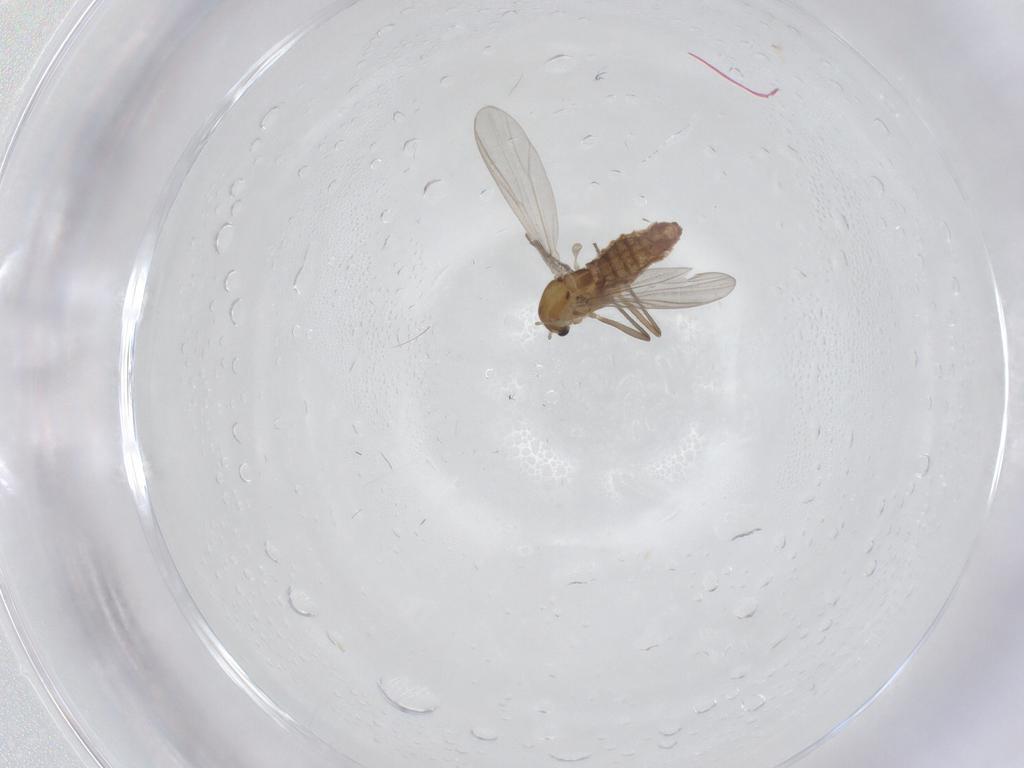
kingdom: Animalia
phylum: Arthropoda
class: Insecta
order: Diptera
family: Chironomidae
